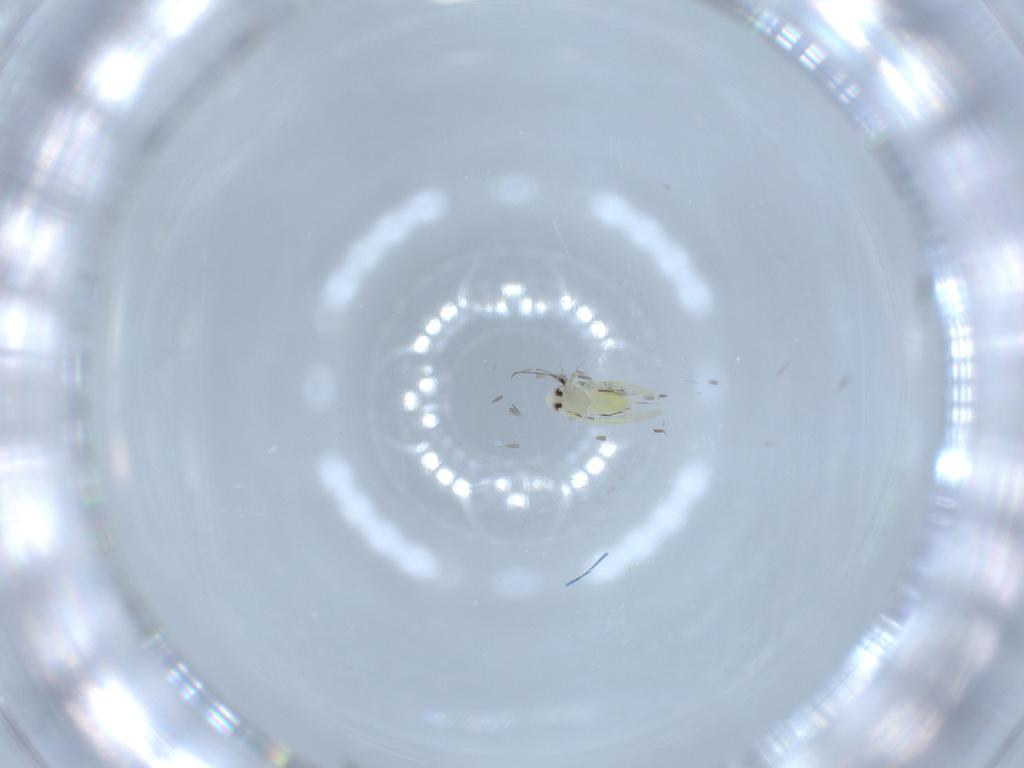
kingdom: Animalia
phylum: Arthropoda
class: Insecta
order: Hemiptera
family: Aleyrodidae
